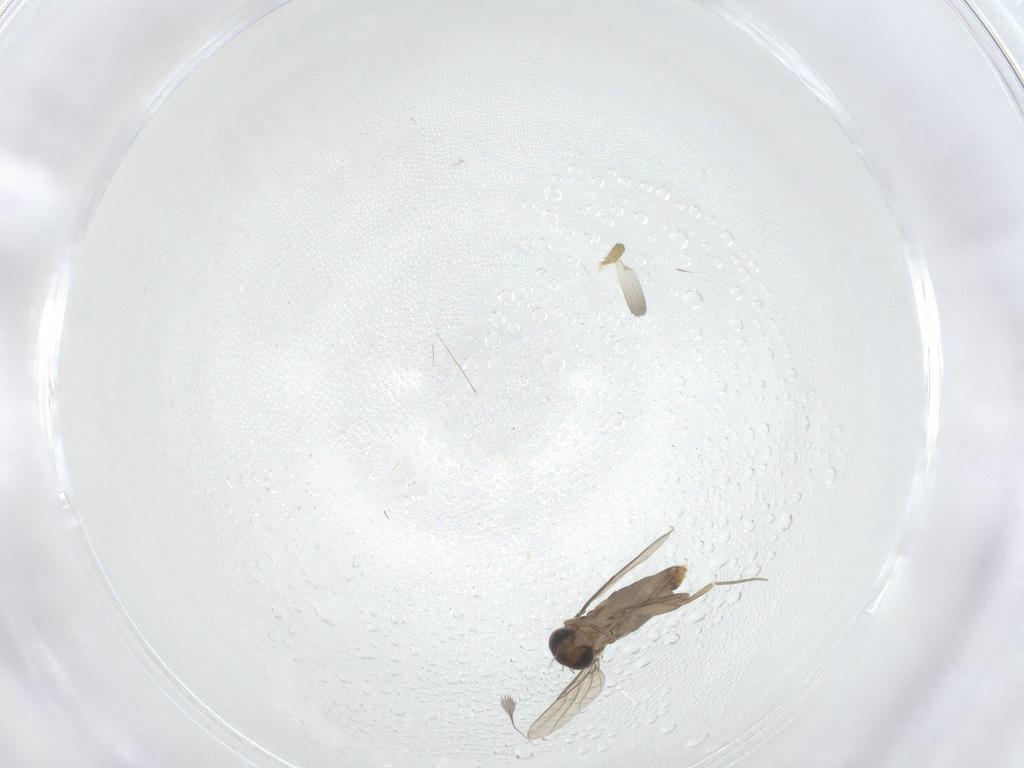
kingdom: Animalia
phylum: Arthropoda
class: Insecta
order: Diptera
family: Phoridae
